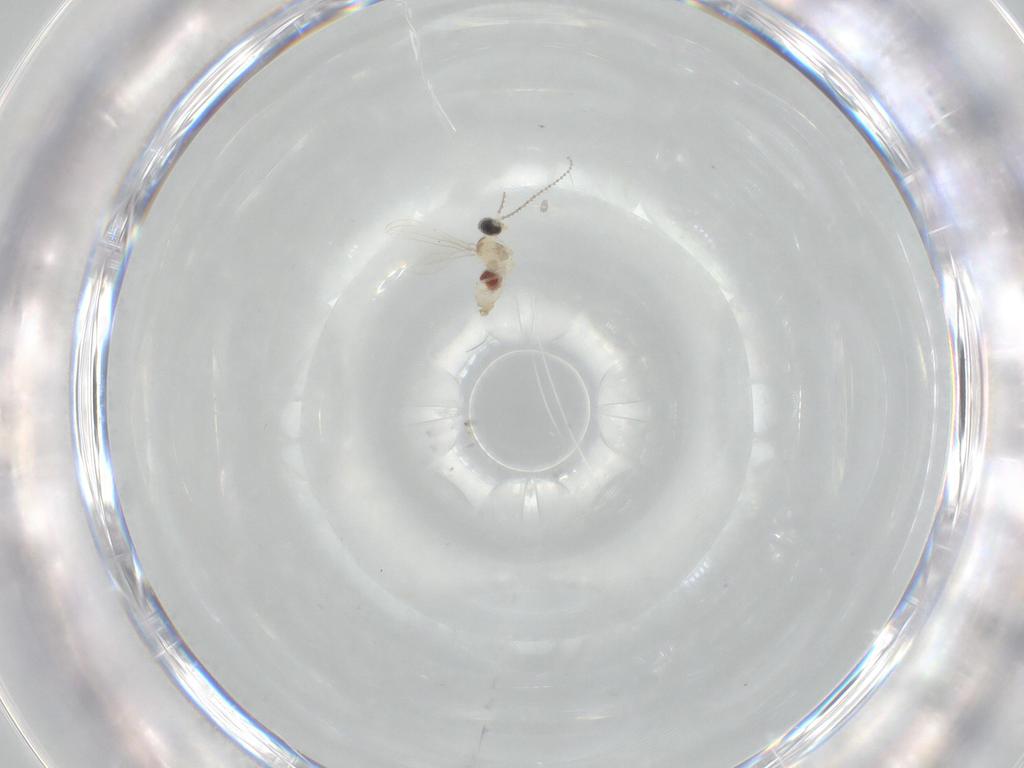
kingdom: Animalia
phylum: Arthropoda
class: Insecta
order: Diptera
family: Cecidomyiidae
